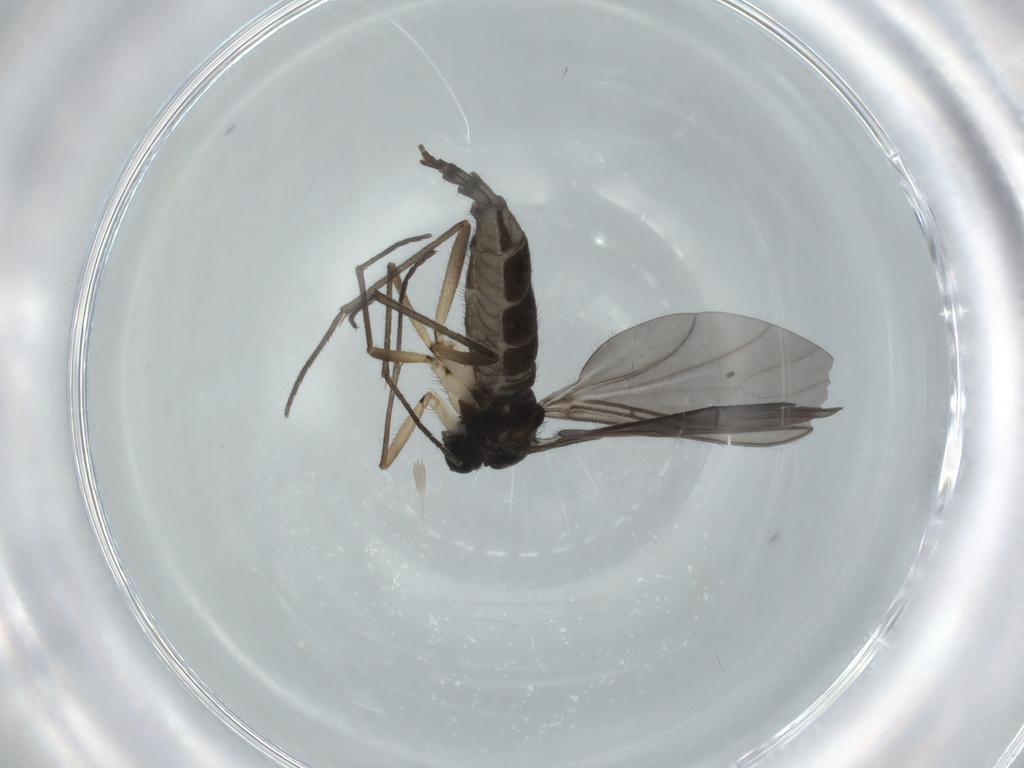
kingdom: Animalia
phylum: Arthropoda
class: Insecta
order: Diptera
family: Sciaridae
